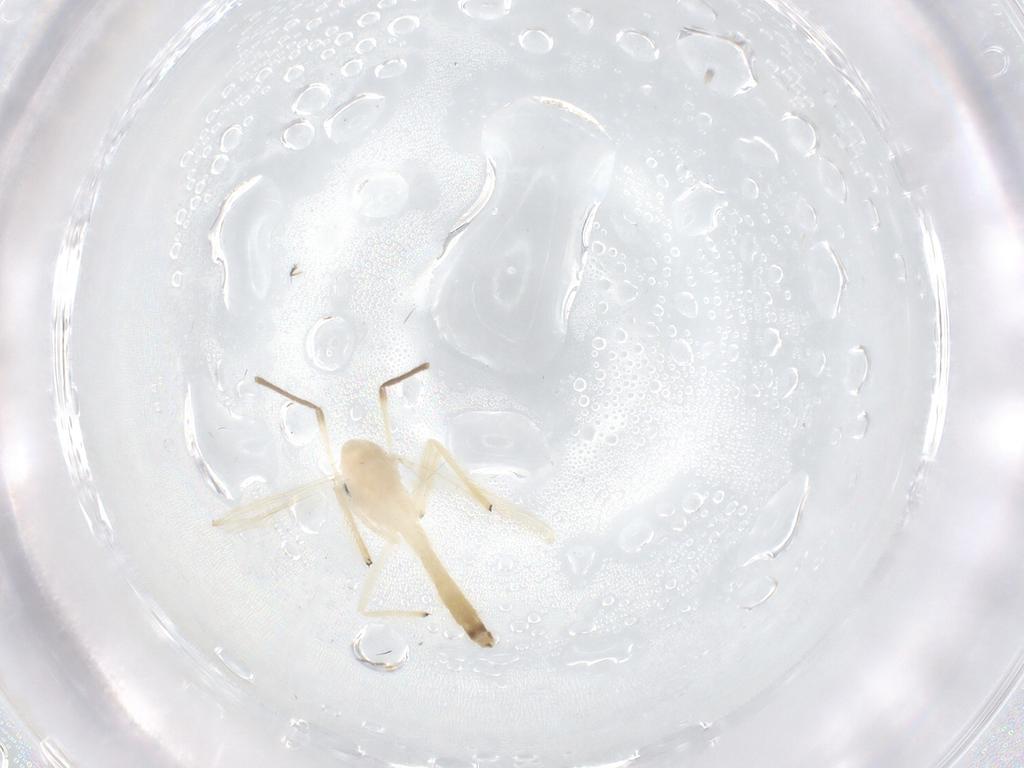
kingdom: Animalia
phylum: Arthropoda
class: Insecta
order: Diptera
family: Chironomidae
